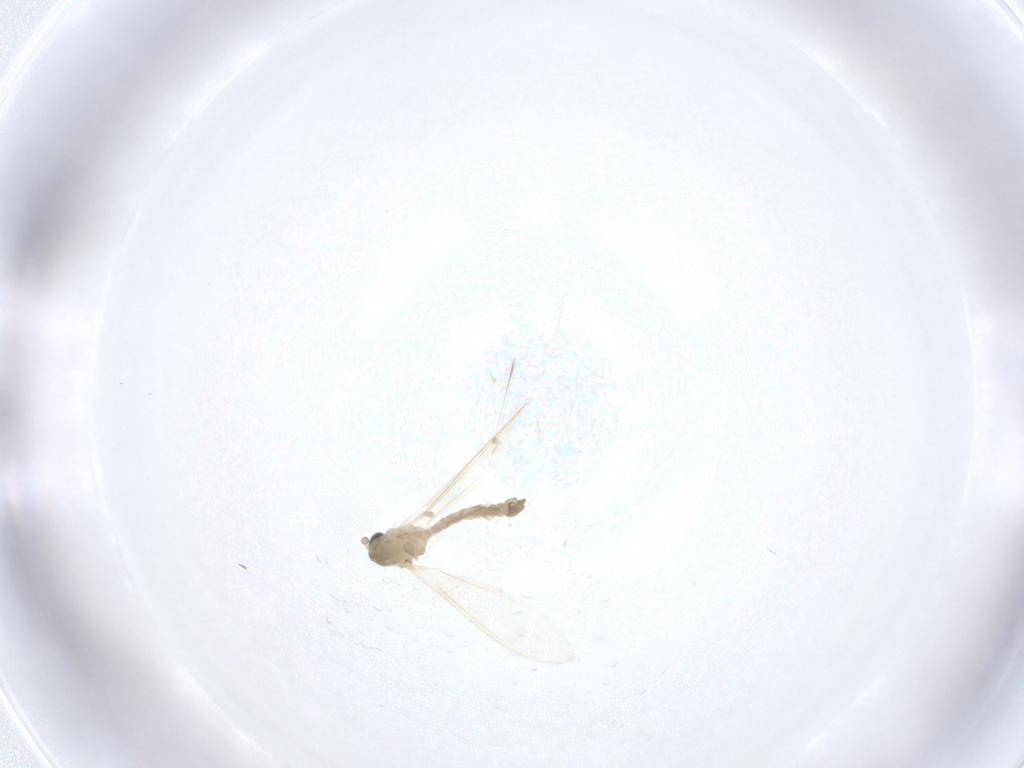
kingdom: Animalia
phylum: Arthropoda
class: Insecta
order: Diptera
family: Psychodidae
